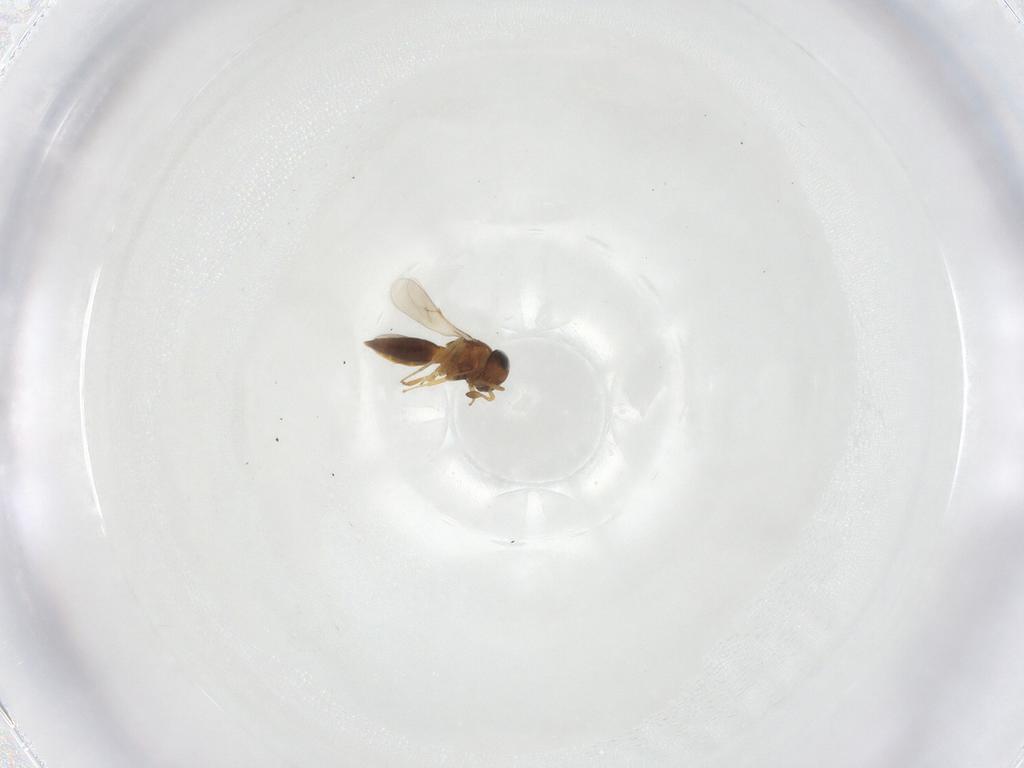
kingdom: Animalia
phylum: Arthropoda
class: Insecta
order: Hymenoptera
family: Scelionidae
